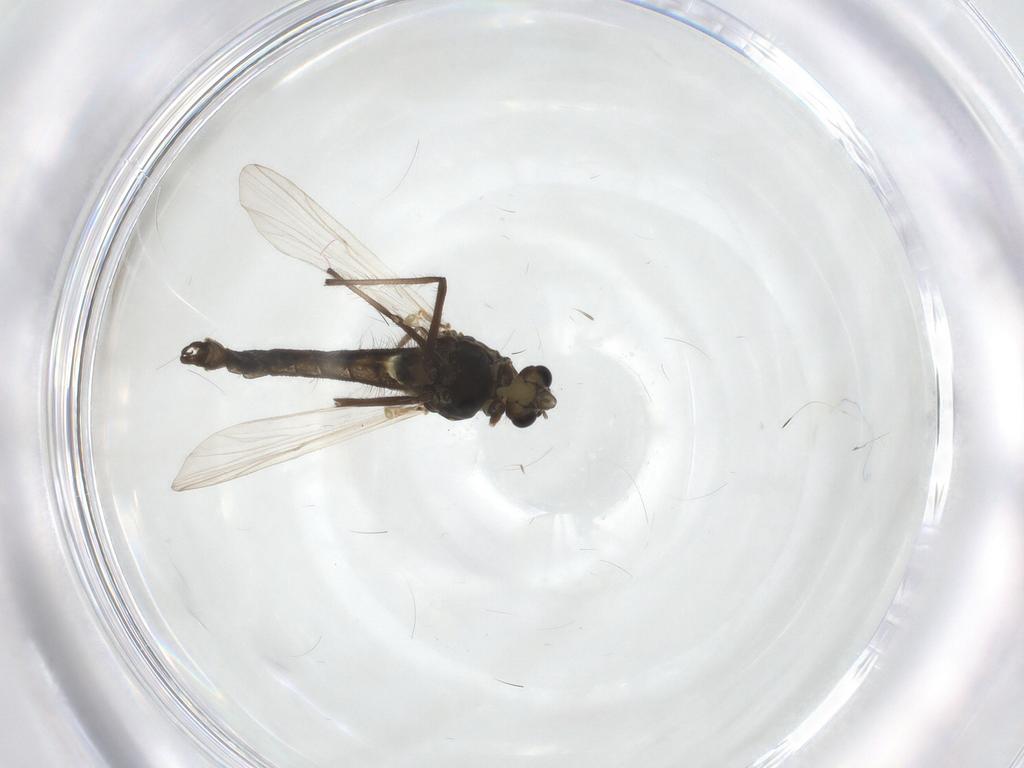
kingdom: Animalia
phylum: Arthropoda
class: Insecta
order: Diptera
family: Chironomidae
